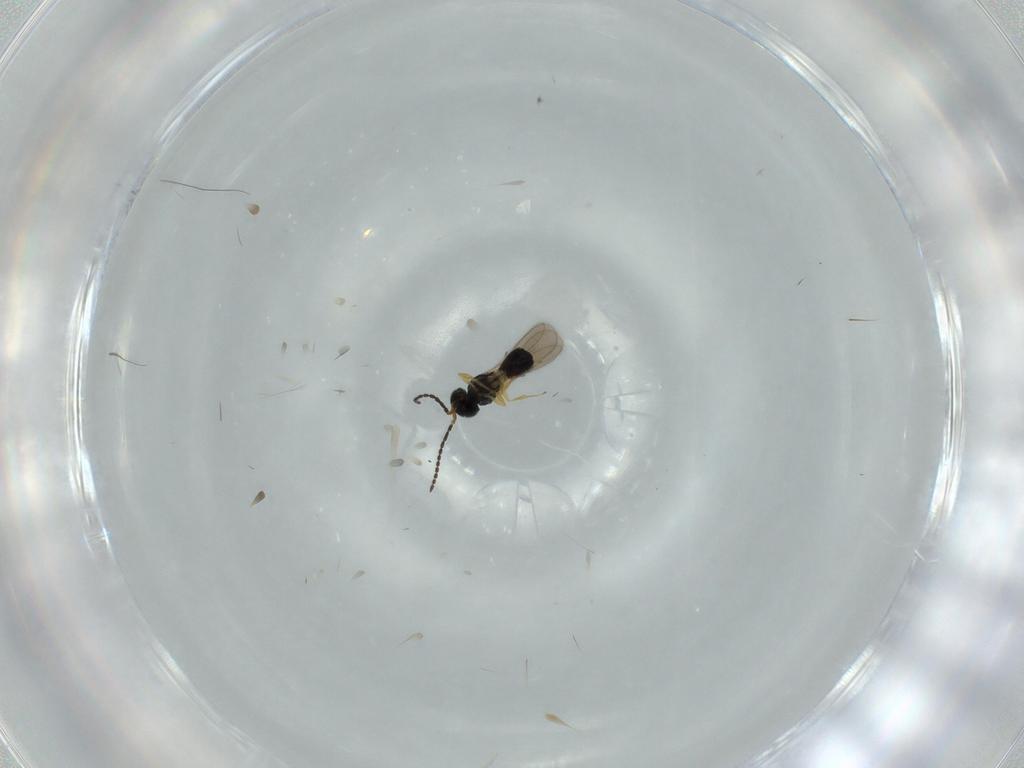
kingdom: Animalia
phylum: Arthropoda
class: Insecta
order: Hymenoptera
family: Scelionidae
